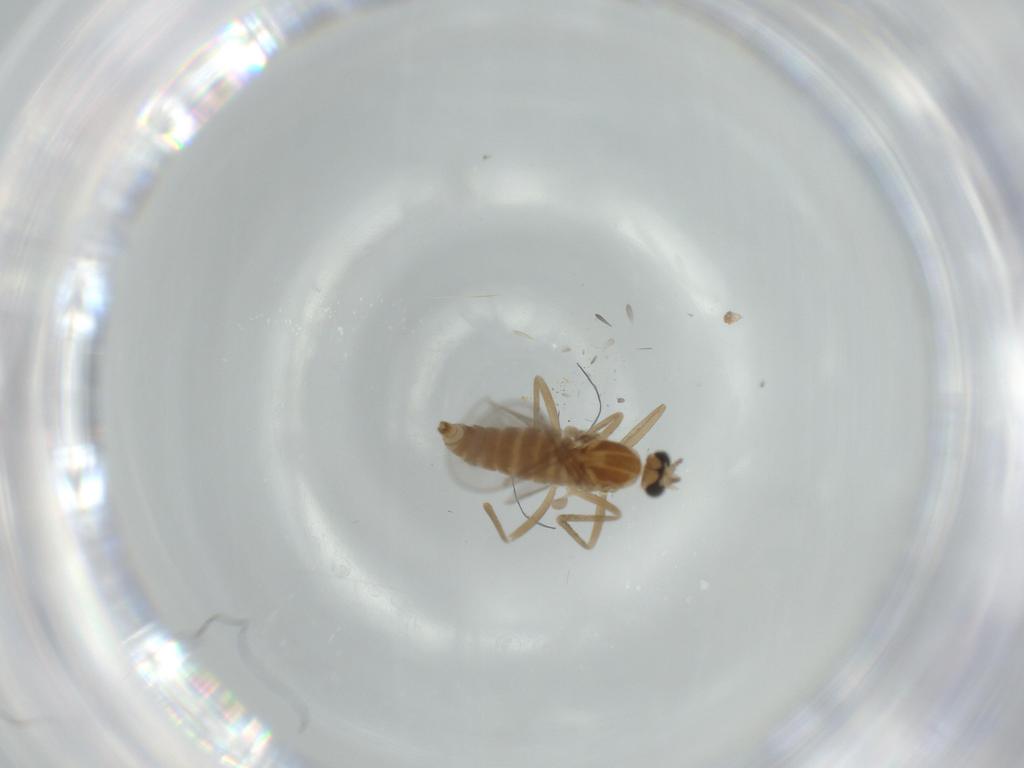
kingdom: Animalia
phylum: Arthropoda
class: Insecta
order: Diptera
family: Cecidomyiidae
